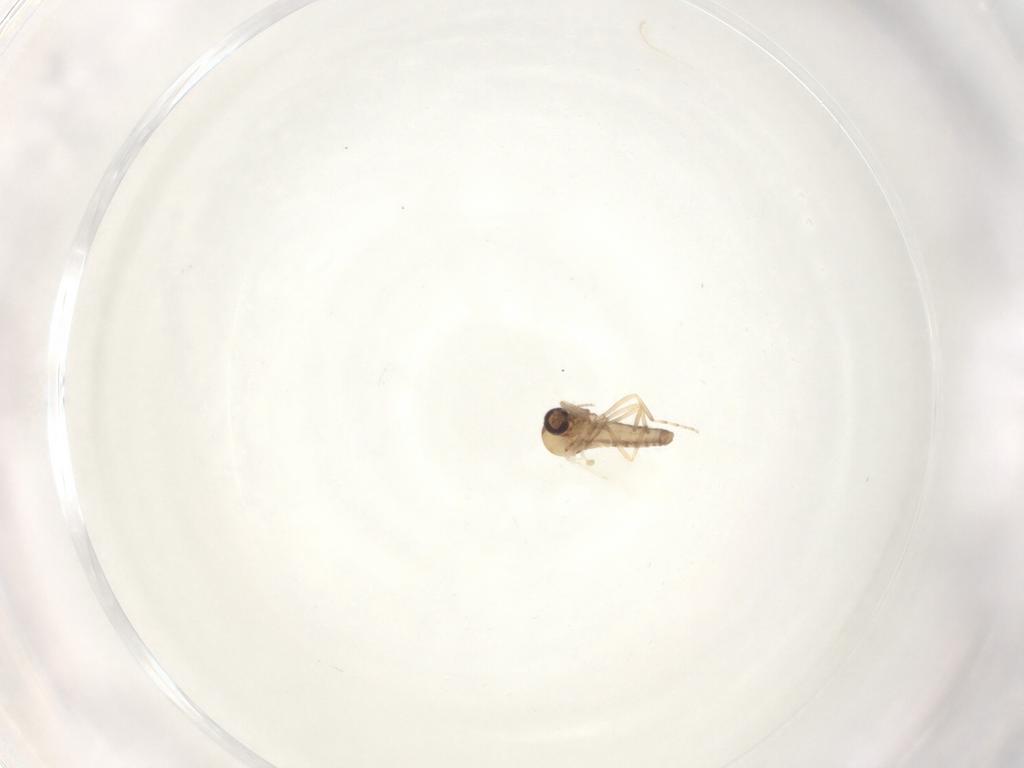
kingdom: Animalia
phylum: Arthropoda
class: Insecta
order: Diptera
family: Ceratopogonidae
